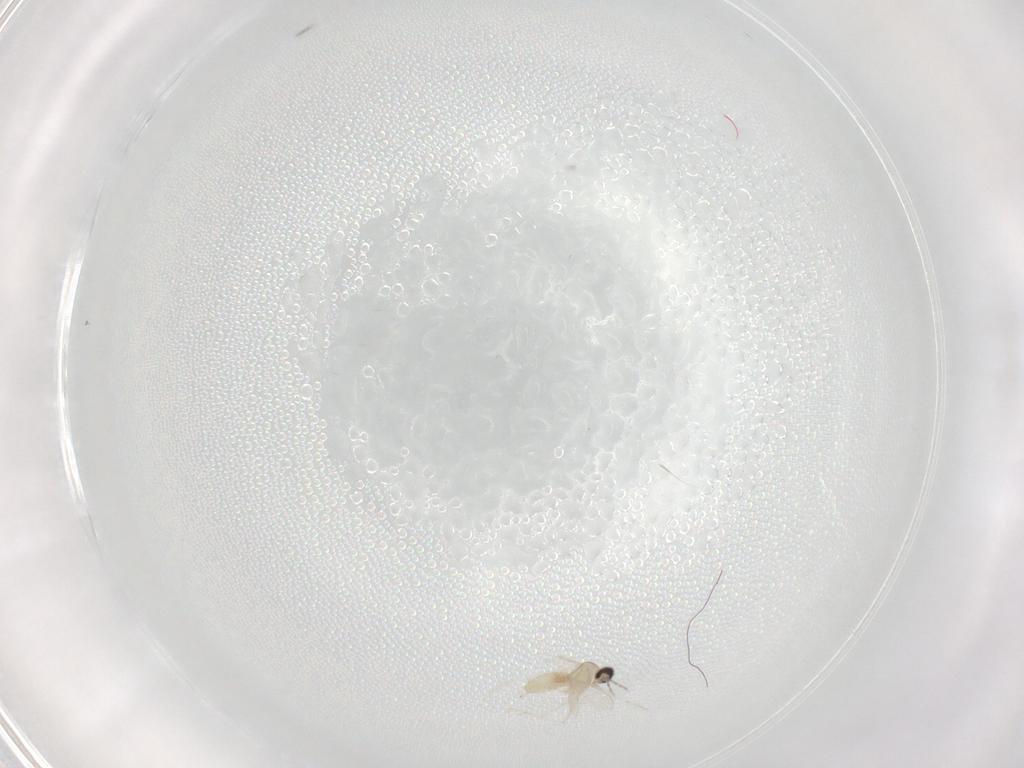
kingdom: Animalia
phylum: Arthropoda
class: Insecta
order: Diptera
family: Cecidomyiidae
